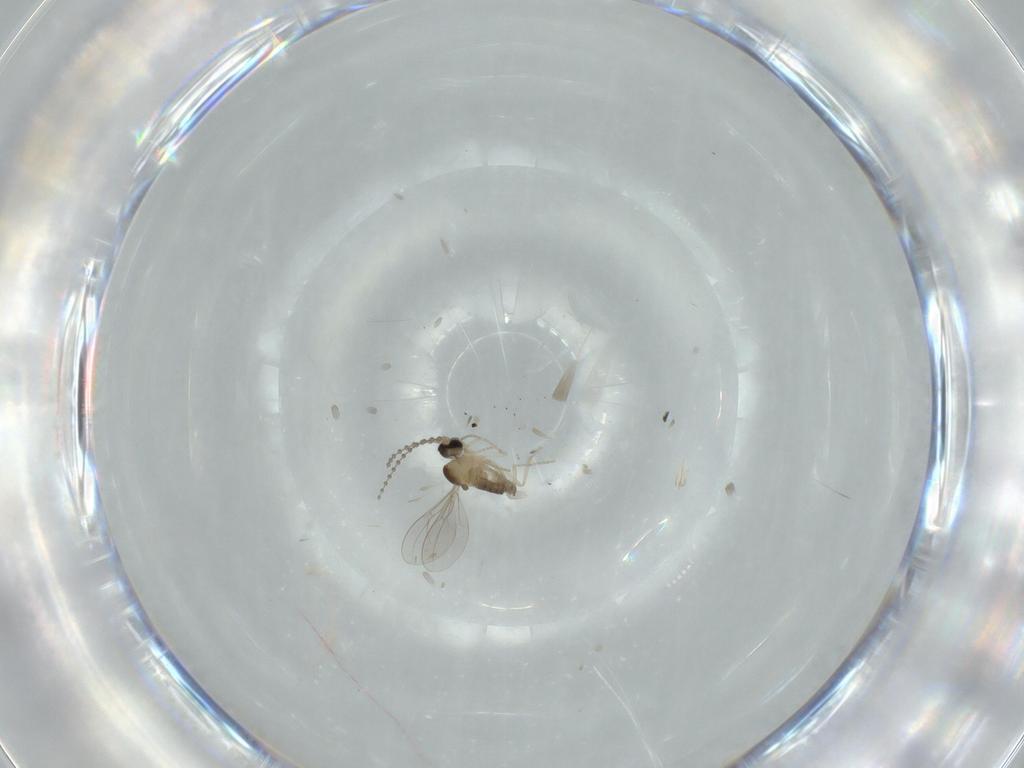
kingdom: Animalia
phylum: Arthropoda
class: Insecta
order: Diptera
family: Cecidomyiidae
